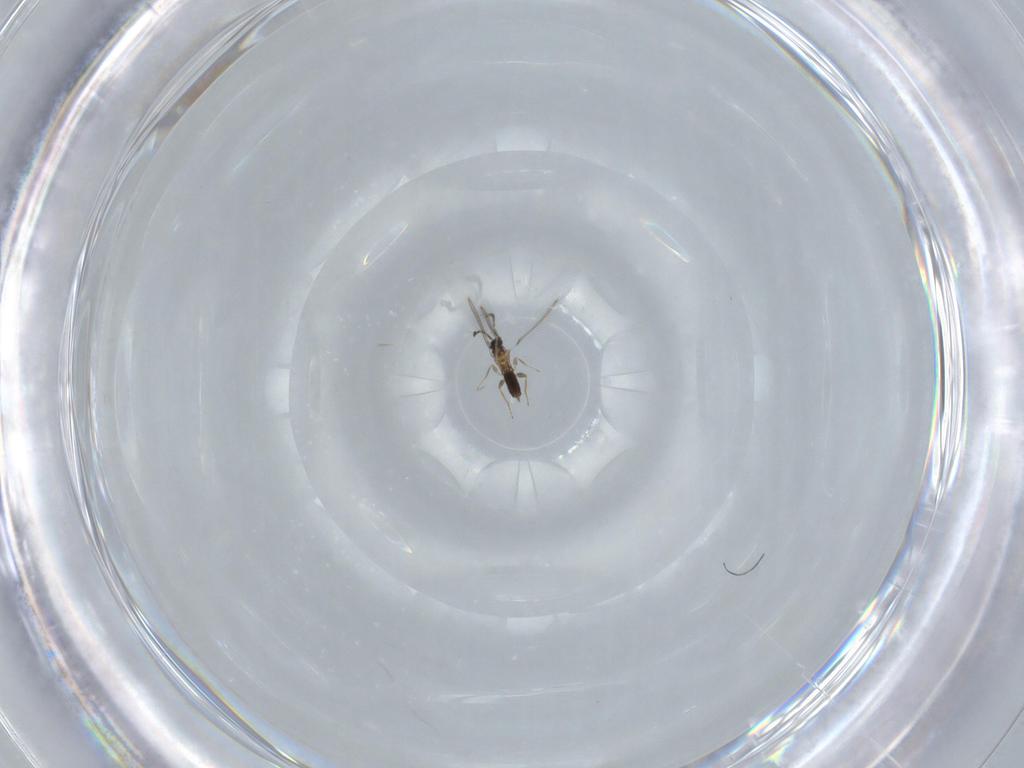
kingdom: Animalia
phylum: Arthropoda
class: Insecta
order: Hymenoptera
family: Mymaridae
